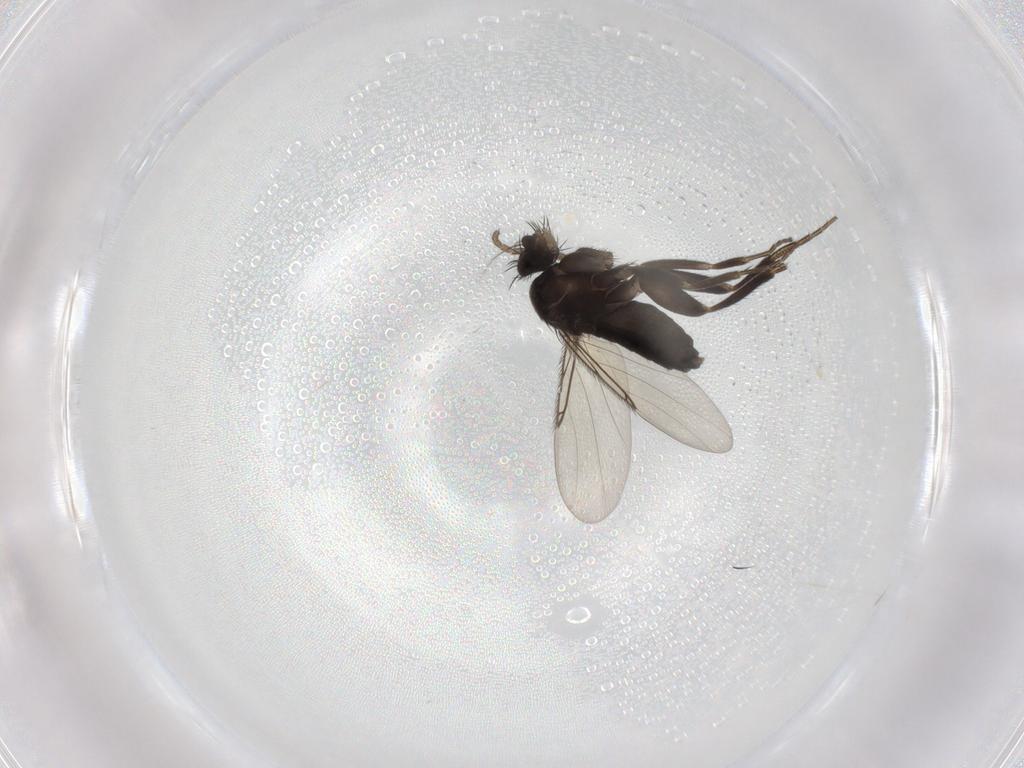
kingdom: Animalia
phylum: Arthropoda
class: Insecta
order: Diptera
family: Phoridae
